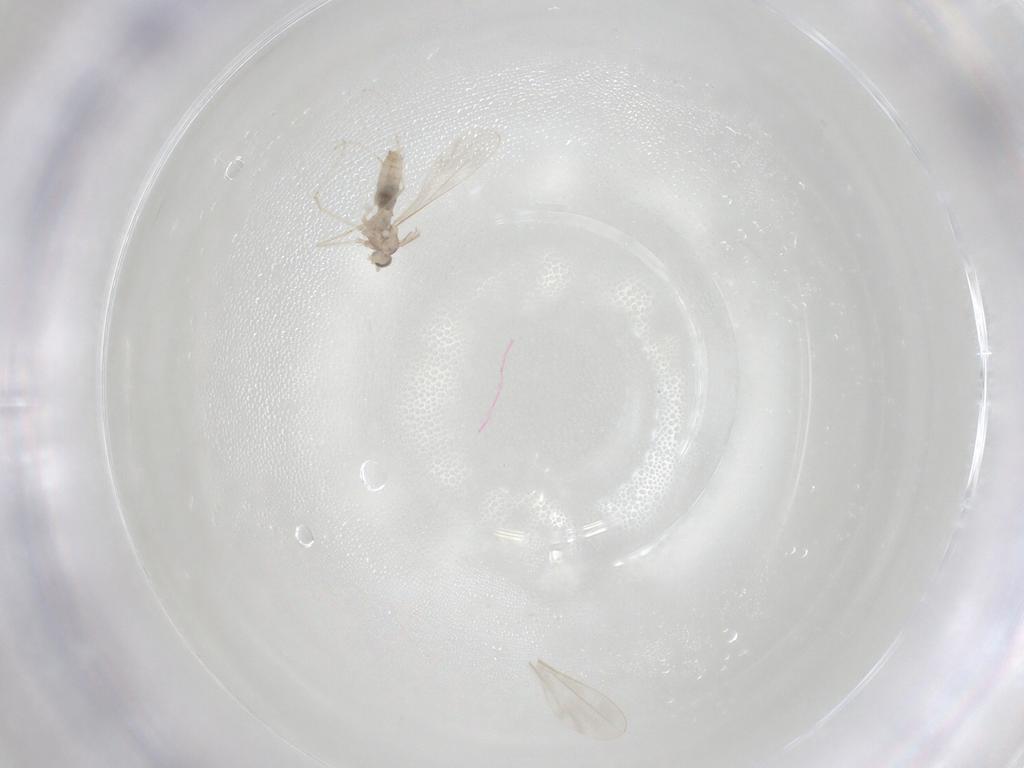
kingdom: Animalia
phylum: Arthropoda
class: Insecta
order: Diptera
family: Cecidomyiidae
